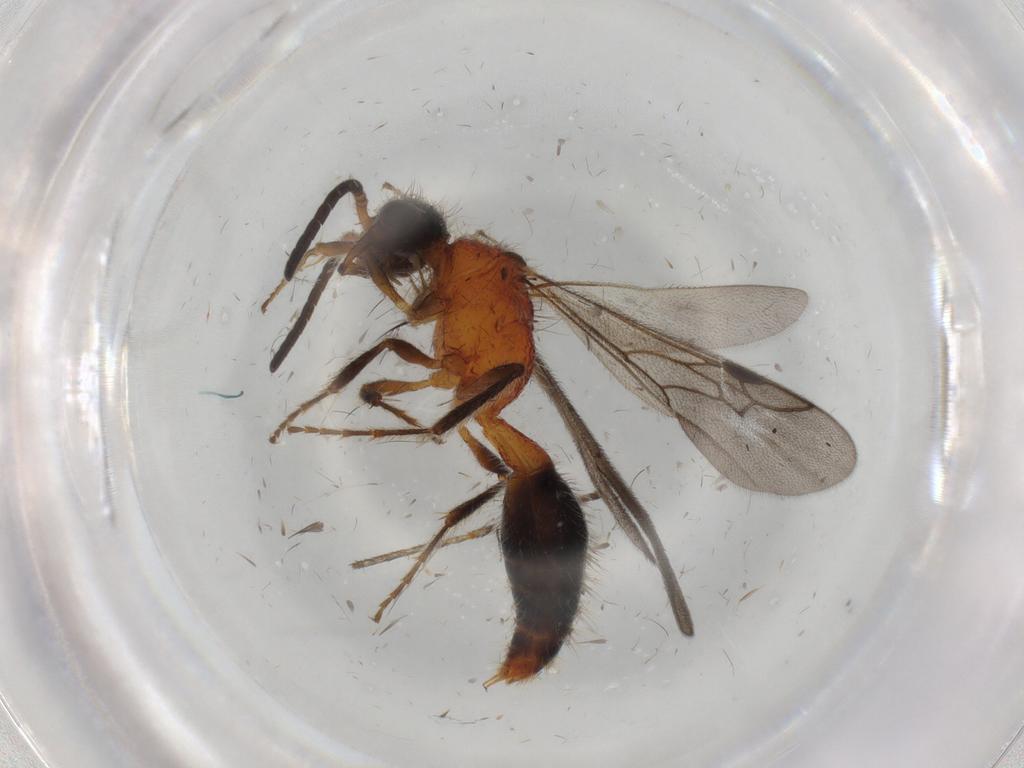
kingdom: Animalia
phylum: Arthropoda
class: Insecta
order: Hymenoptera
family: Mutillidae
